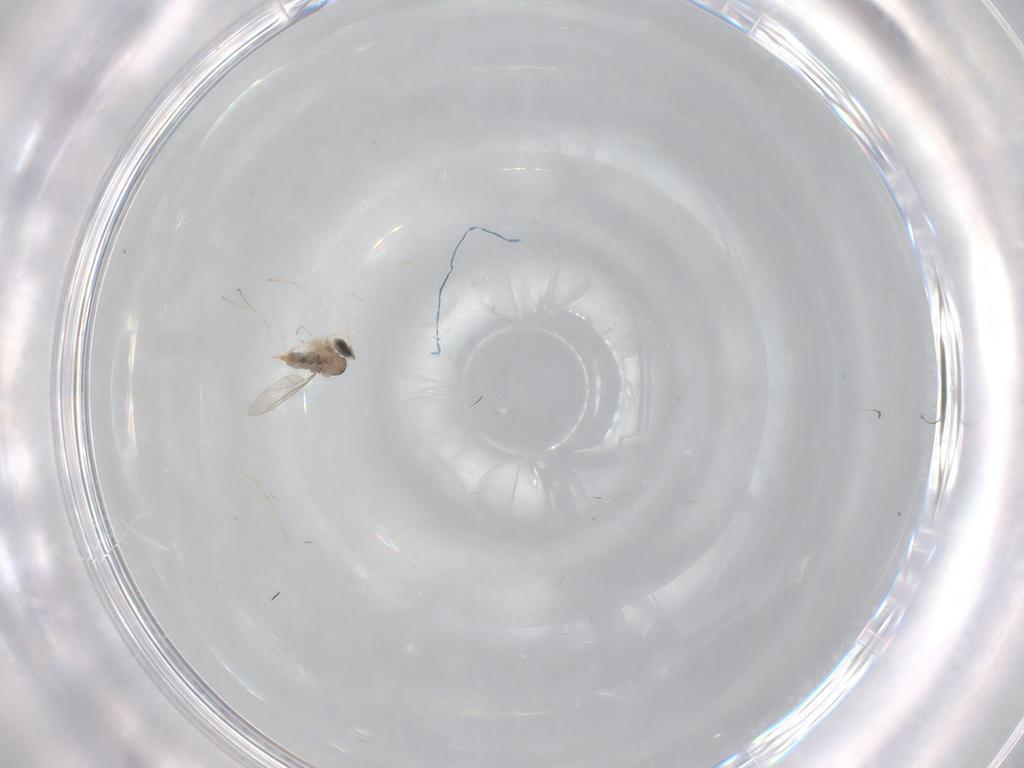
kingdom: Animalia
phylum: Arthropoda
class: Insecta
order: Diptera
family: Cecidomyiidae
